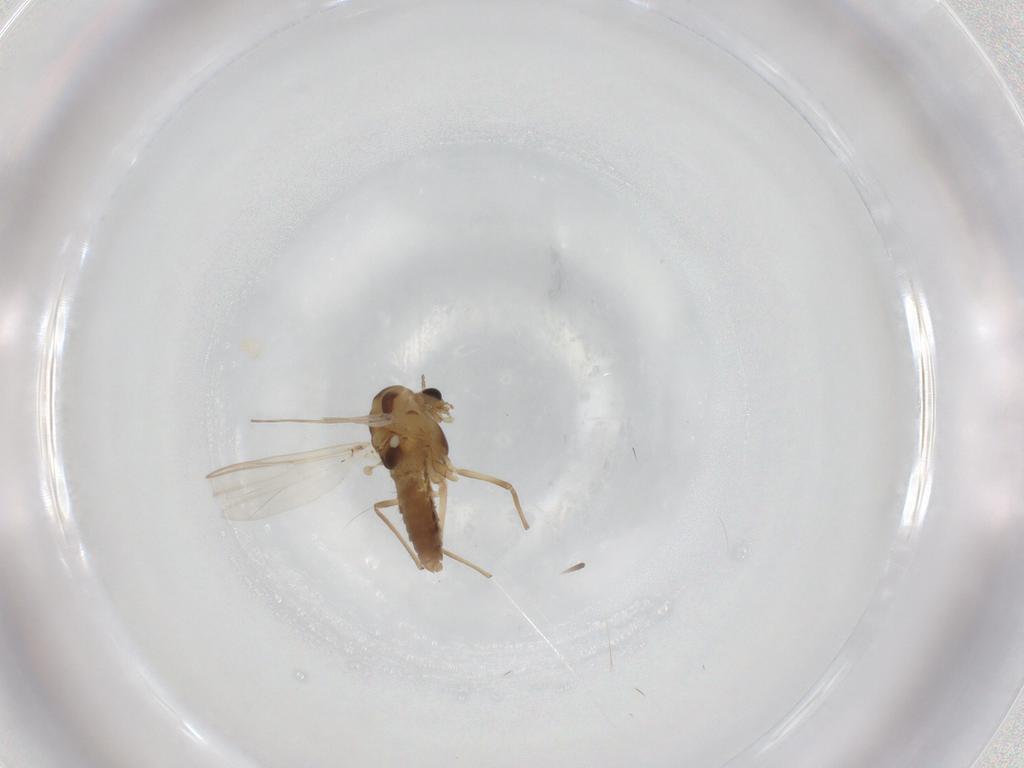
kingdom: Animalia
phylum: Arthropoda
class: Insecta
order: Diptera
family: Chironomidae
